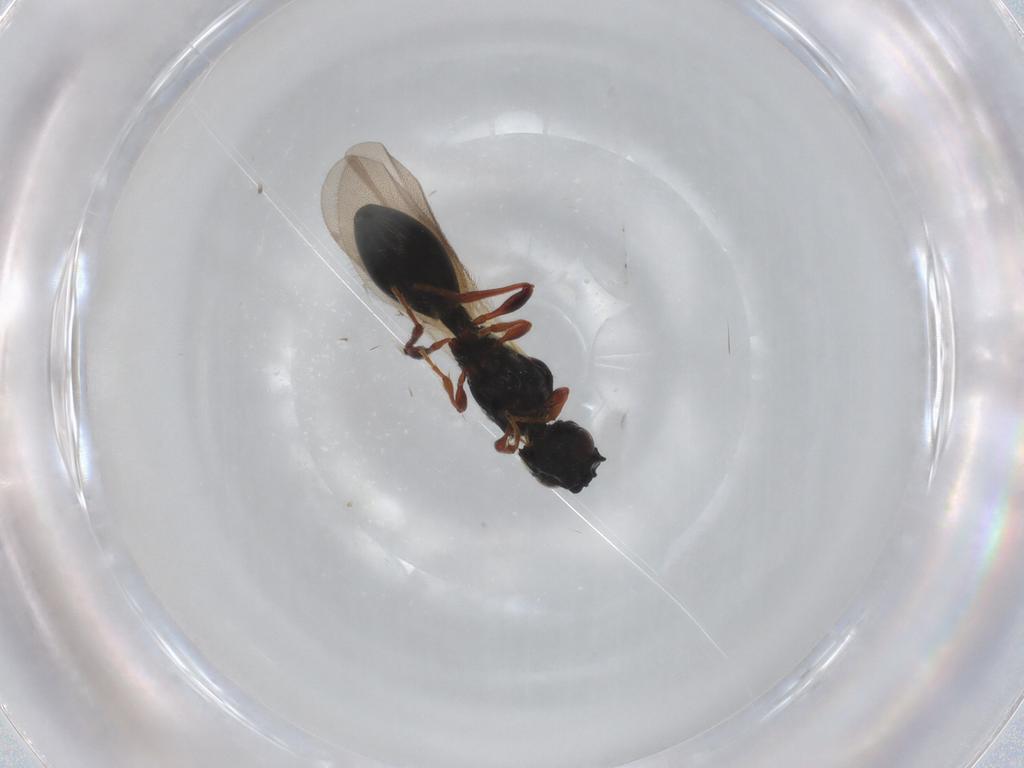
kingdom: Animalia
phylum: Arthropoda
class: Insecta
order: Hymenoptera
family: Diapriidae
